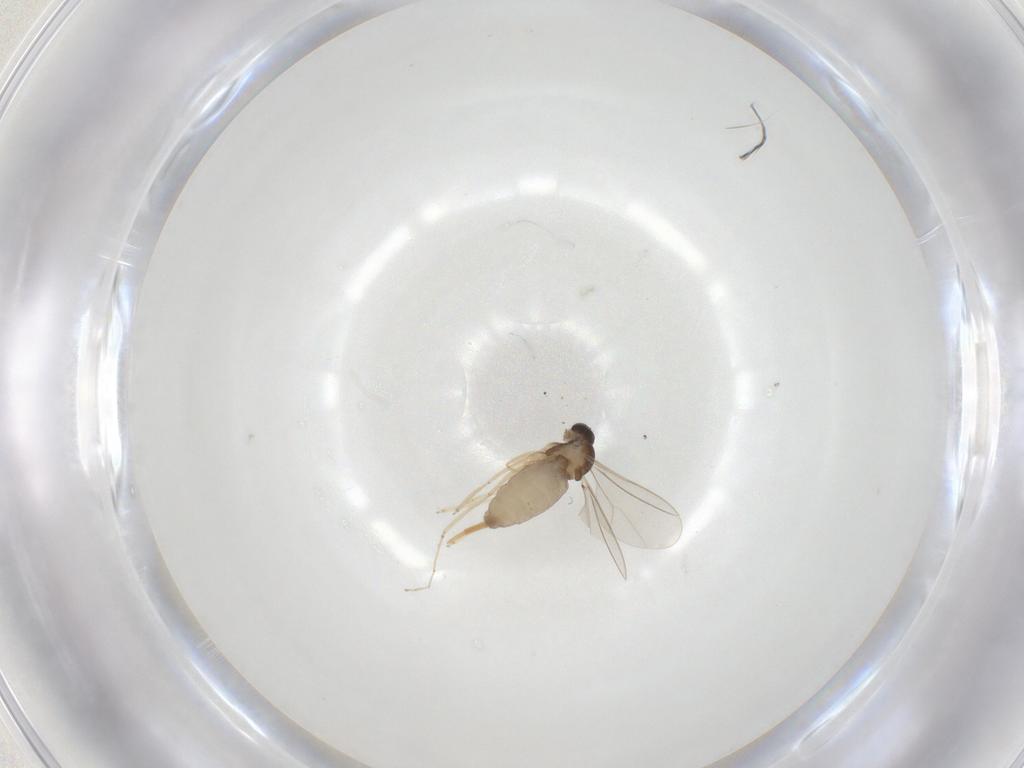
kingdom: Animalia
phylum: Arthropoda
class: Insecta
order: Diptera
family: Cecidomyiidae
